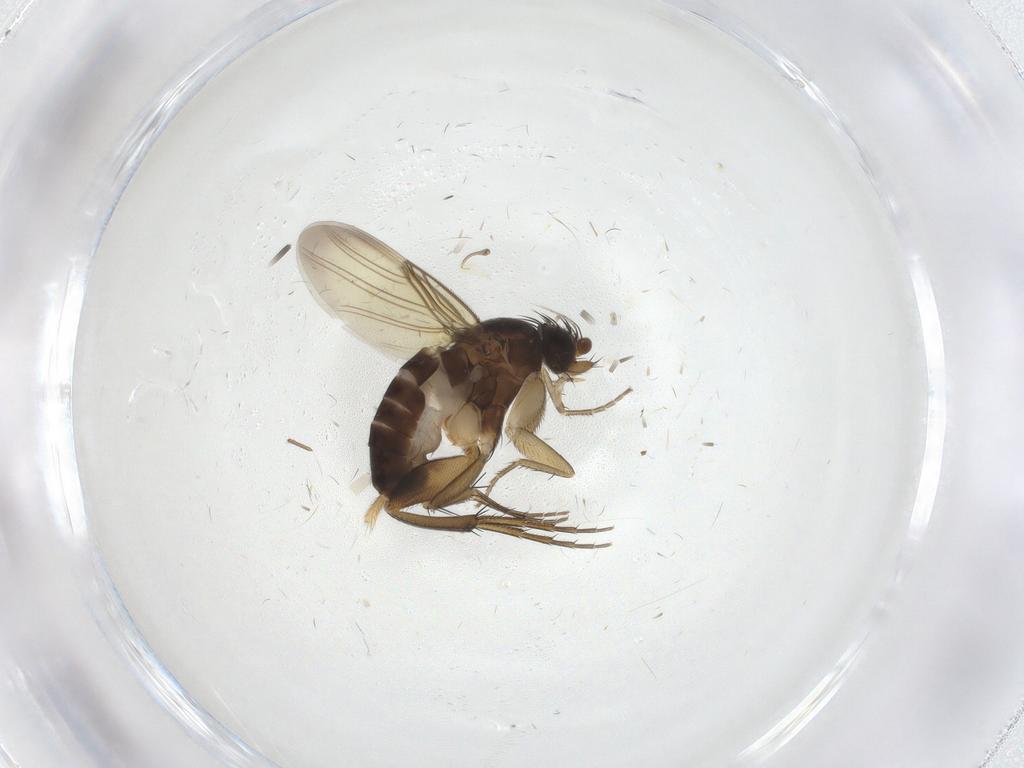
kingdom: Animalia
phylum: Arthropoda
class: Insecta
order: Diptera
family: Phoridae
